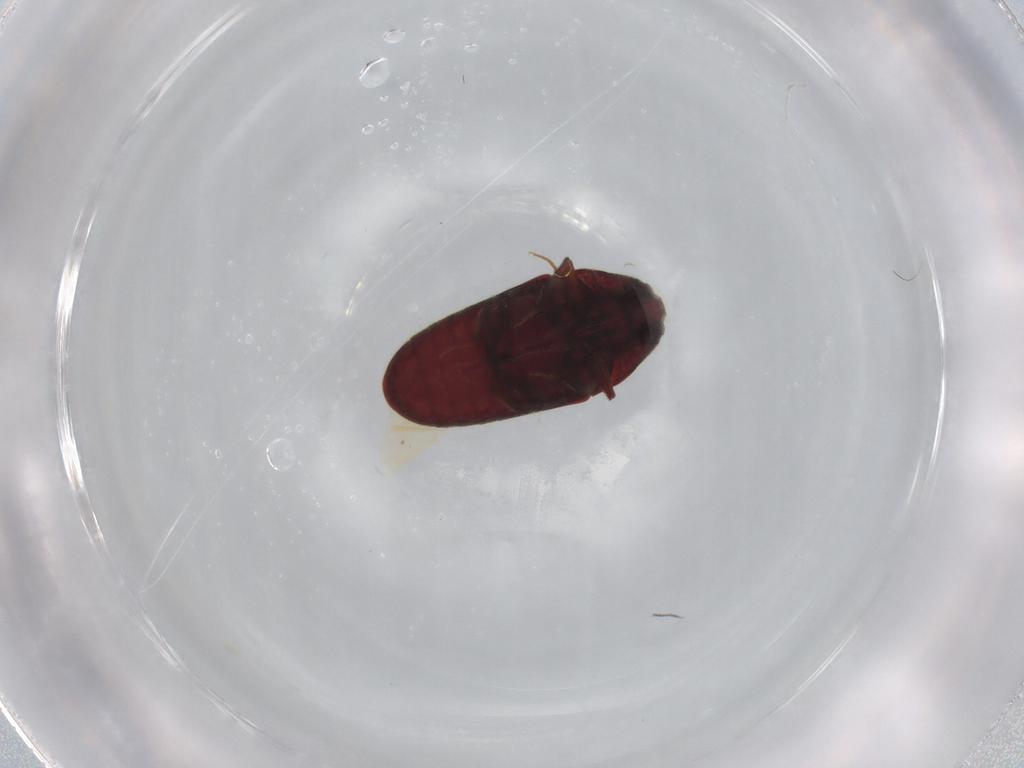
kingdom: Animalia
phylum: Arthropoda
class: Insecta
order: Coleoptera
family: Throscidae
